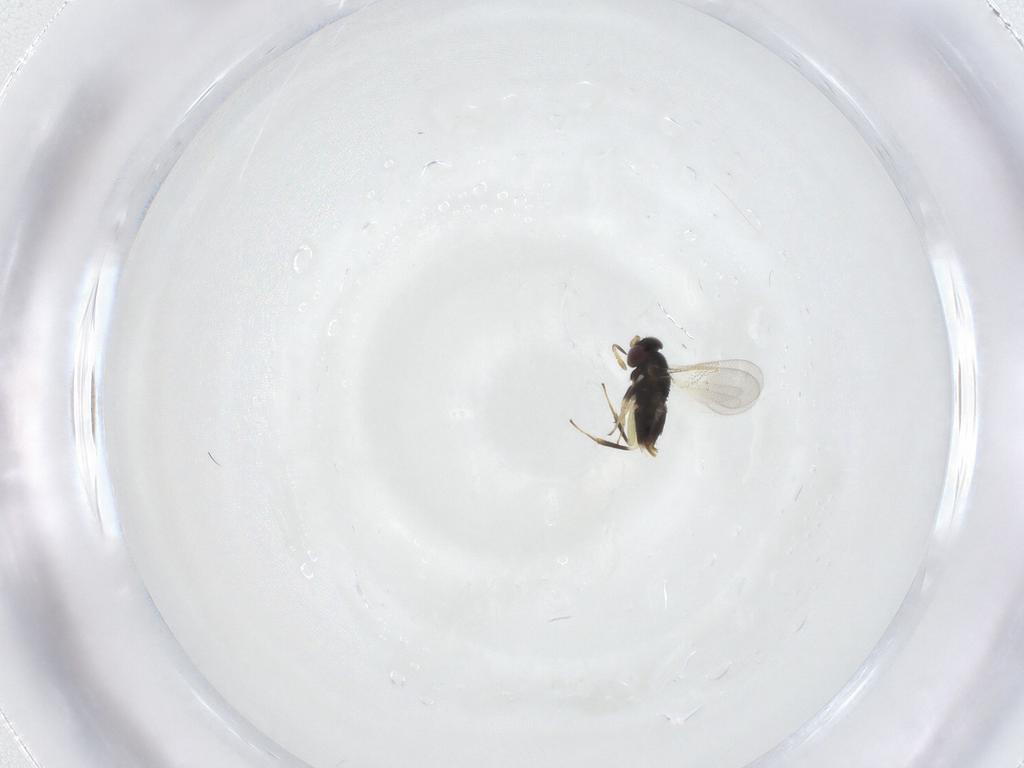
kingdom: Animalia
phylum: Arthropoda
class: Insecta
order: Hymenoptera
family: Aphelinidae
